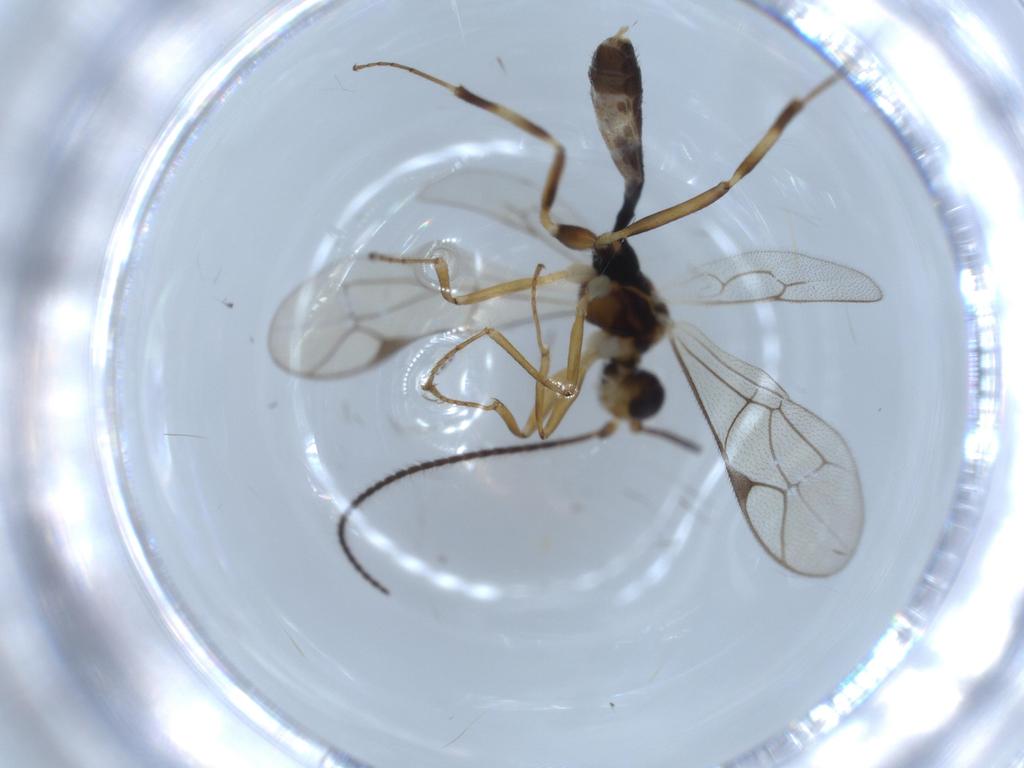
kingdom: Animalia
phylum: Arthropoda
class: Insecta
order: Hymenoptera
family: Ichneumonidae
